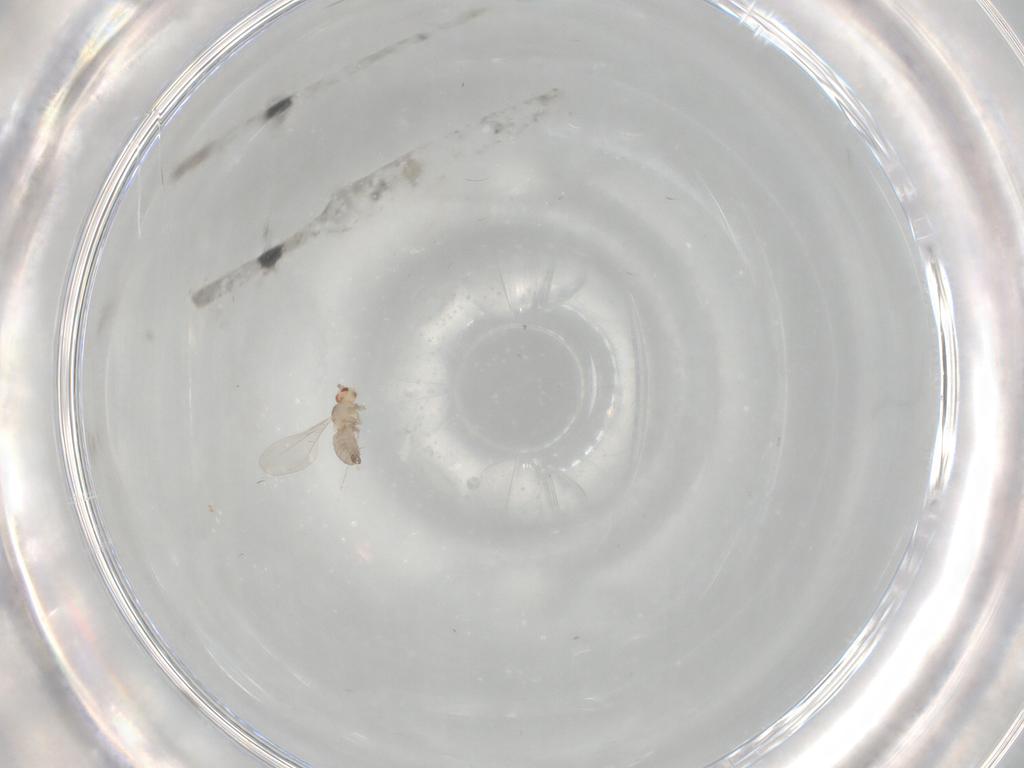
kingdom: Animalia
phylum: Arthropoda
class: Insecta
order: Diptera
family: Cecidomyiidae
